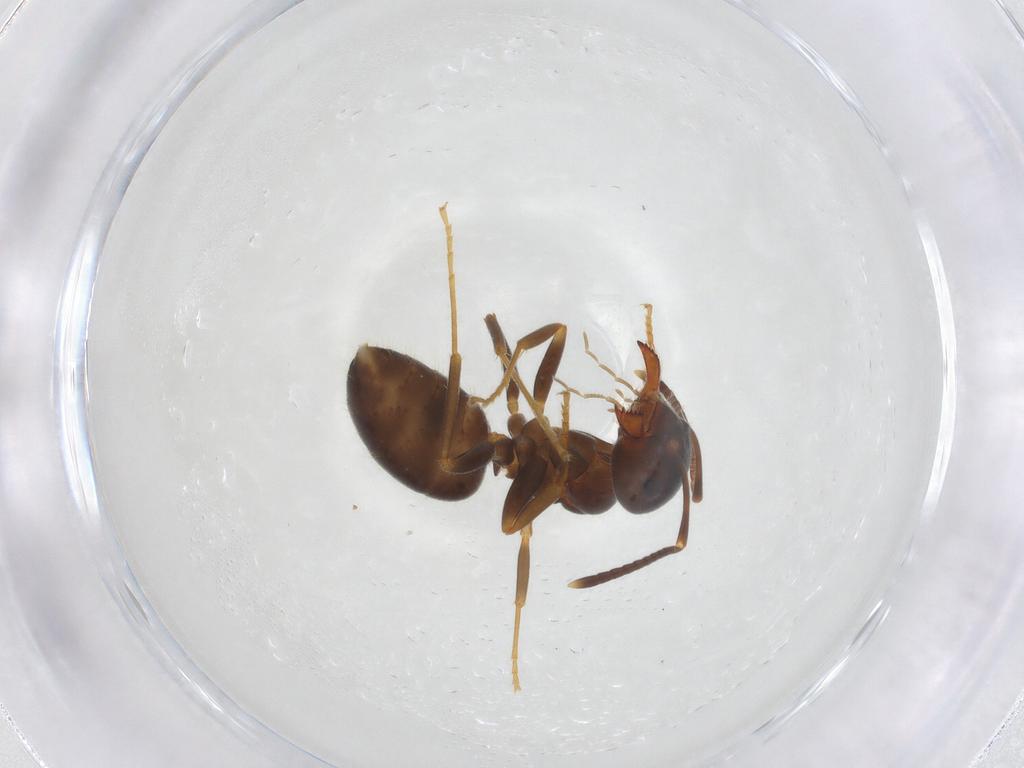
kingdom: Animalia
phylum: Arthropoda
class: Insecta
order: Hymenoptera
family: Formicidae
